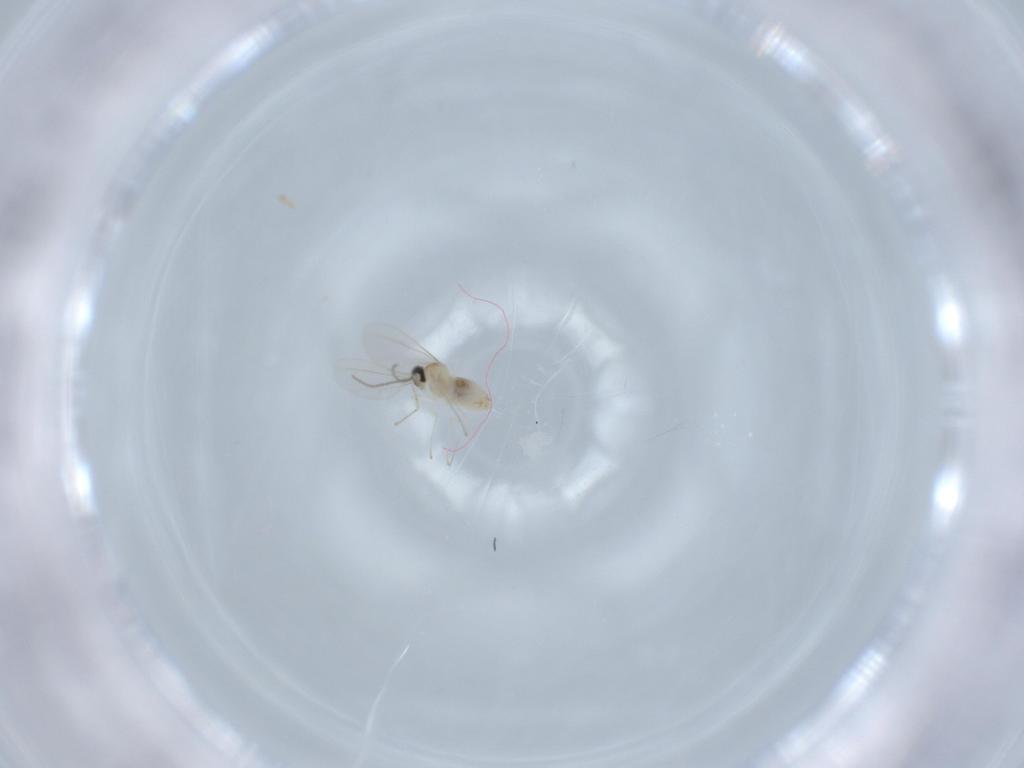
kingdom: Animalia
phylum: Arthropoda
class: Insecta
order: Diptera
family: Cecidomyiidae
